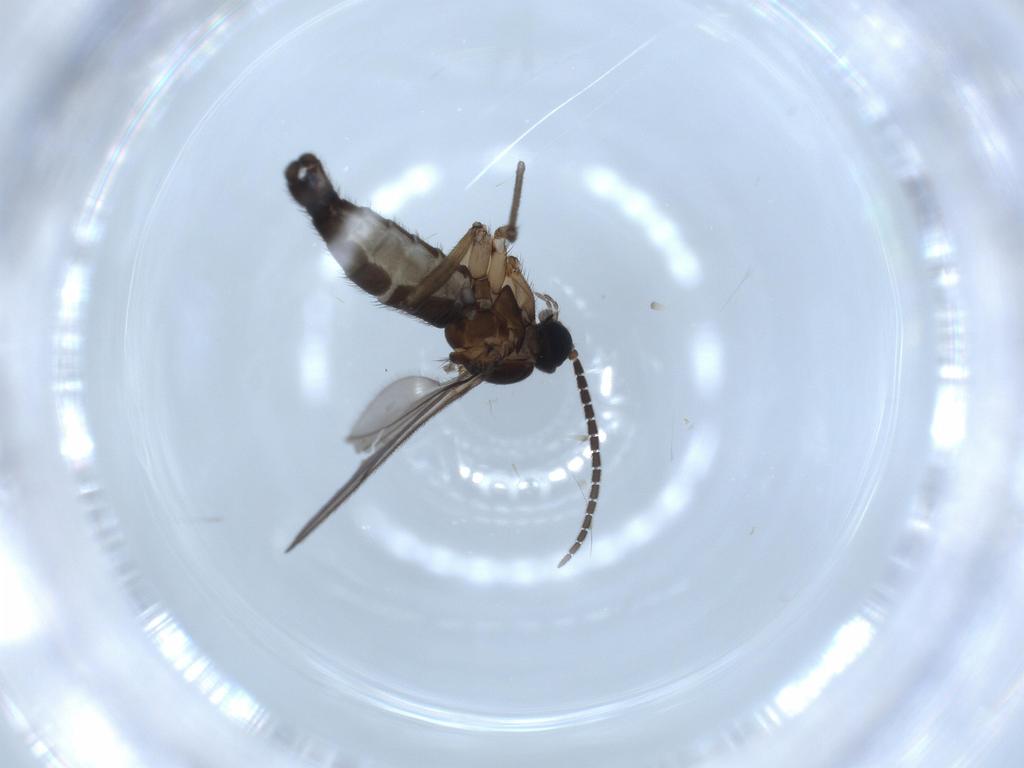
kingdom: Animalia
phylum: Arthropoda
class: Insecta
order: Diptera
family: Sciaridae
